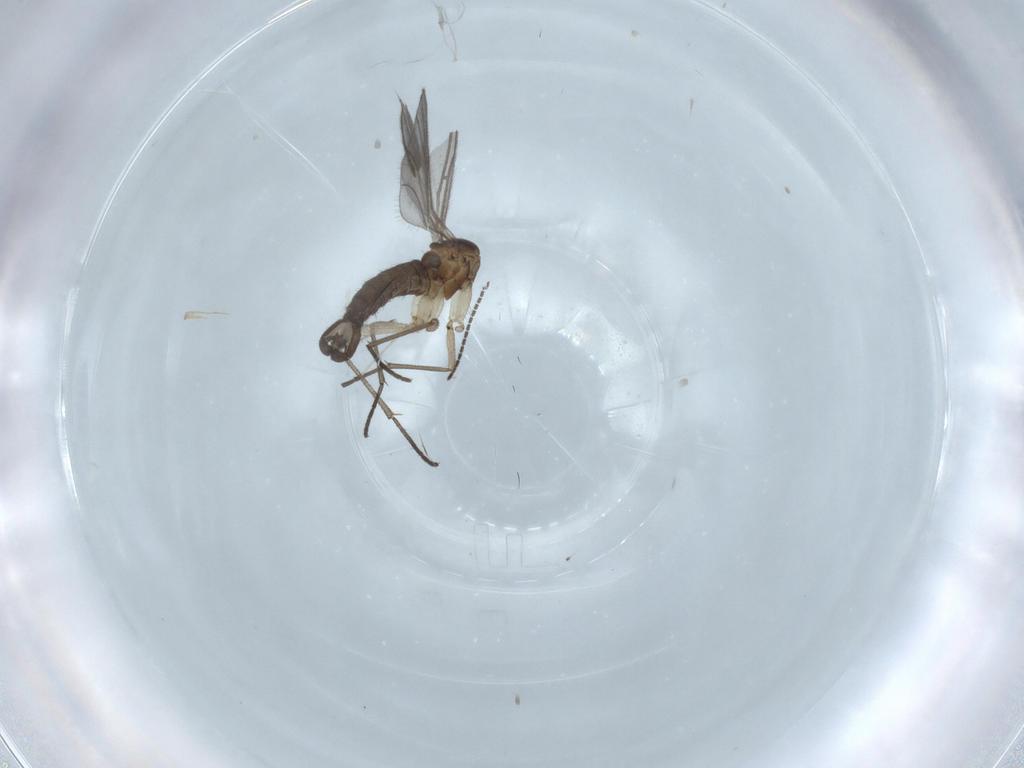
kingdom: Animalia
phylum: Arthropoda
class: Insecta
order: Diptera
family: Sciaridae
